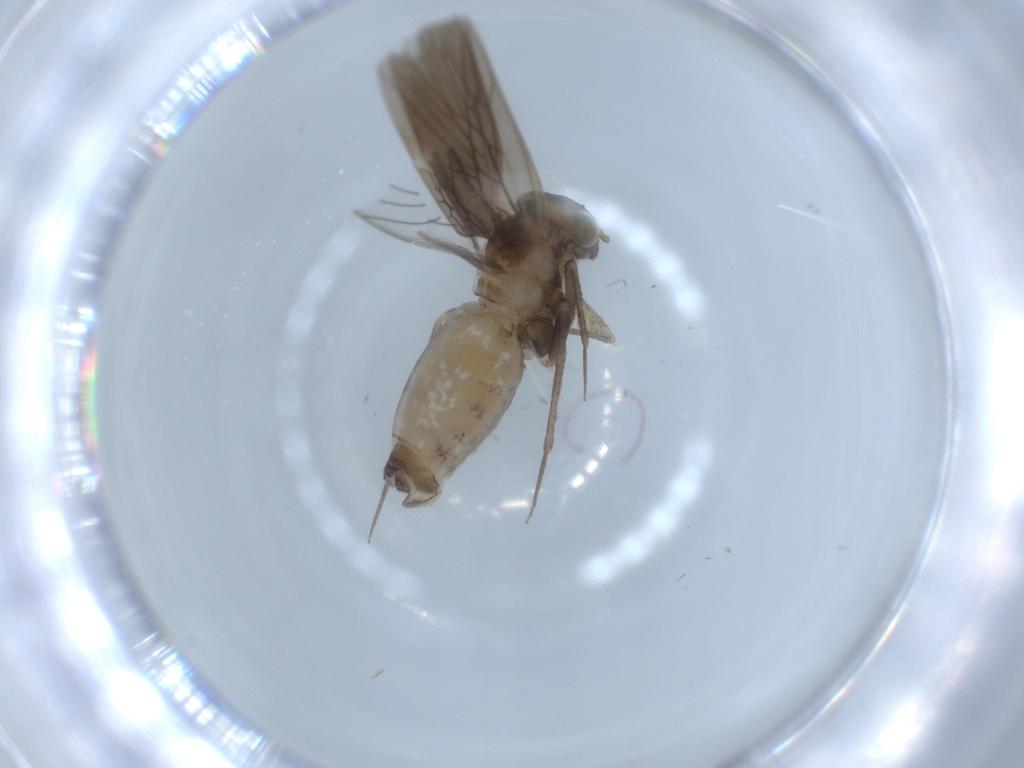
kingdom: Animalia
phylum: Arthropoda
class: Insecta
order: Psocodea
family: Lepidopsocidae
